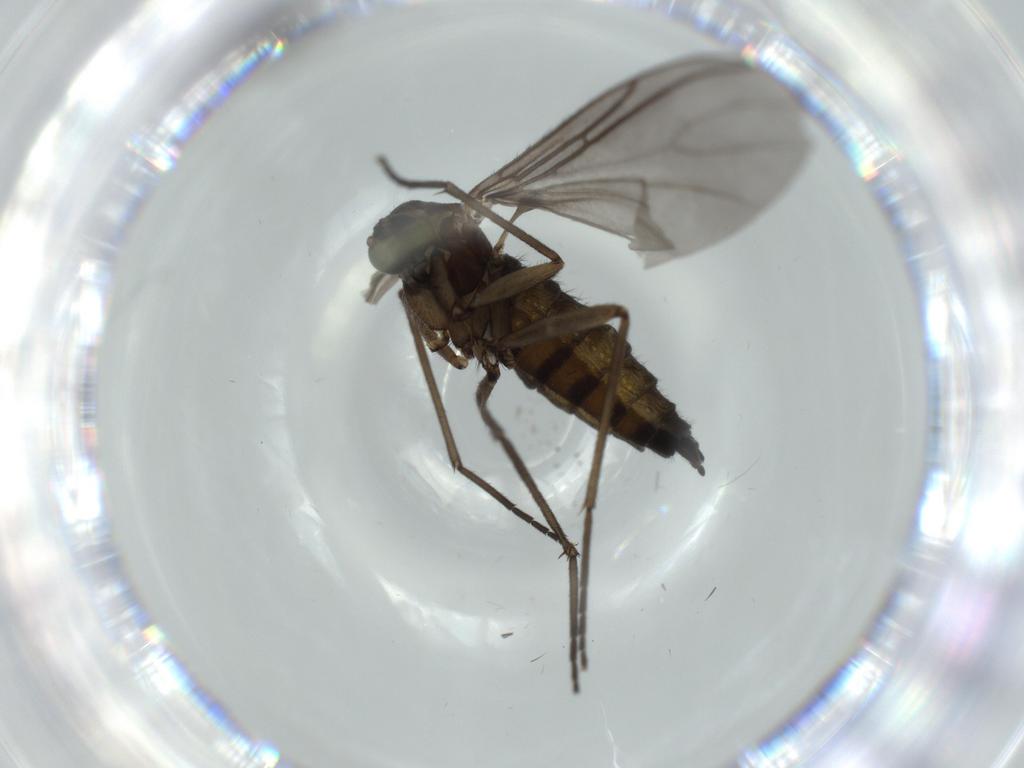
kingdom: Animalia
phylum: Arthropoda
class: Insecta
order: Diptera
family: Sciaridae
